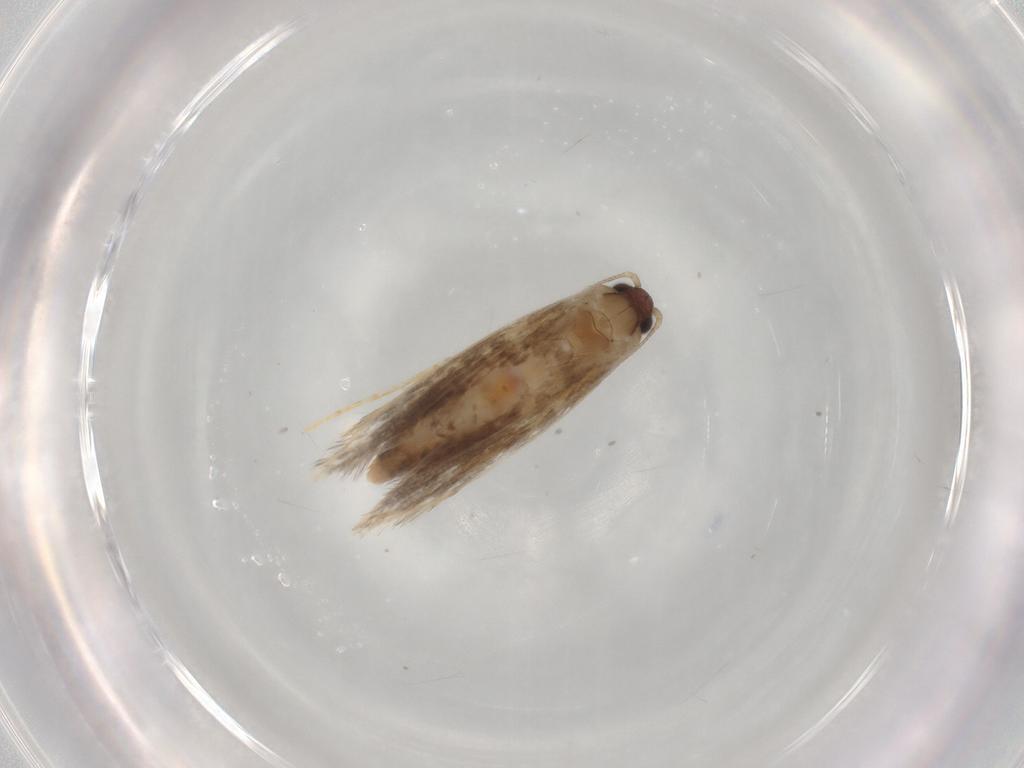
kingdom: Animalia
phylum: Arthropoda
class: Insecta
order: Lepidoptera
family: Tineidae
